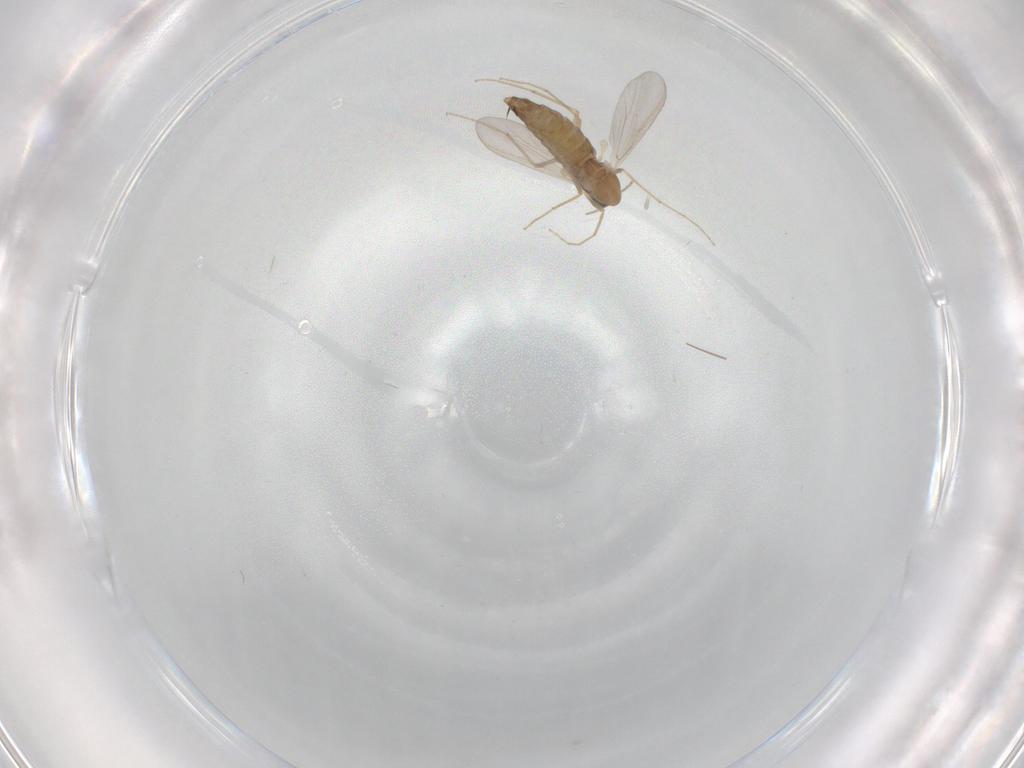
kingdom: Animalia
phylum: Arthropoda
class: Insecta
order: Diptera
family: Chironomidae
